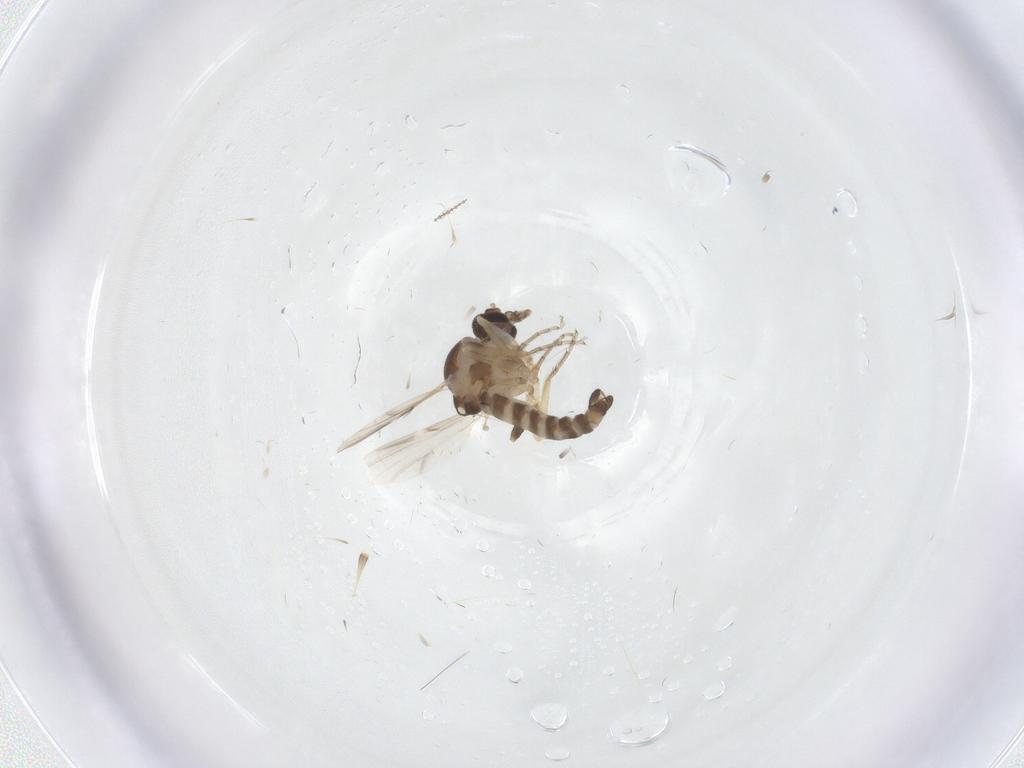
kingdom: Animalia
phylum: Arthropoda
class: Insecta
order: Diptera
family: Ceratopogonidae
